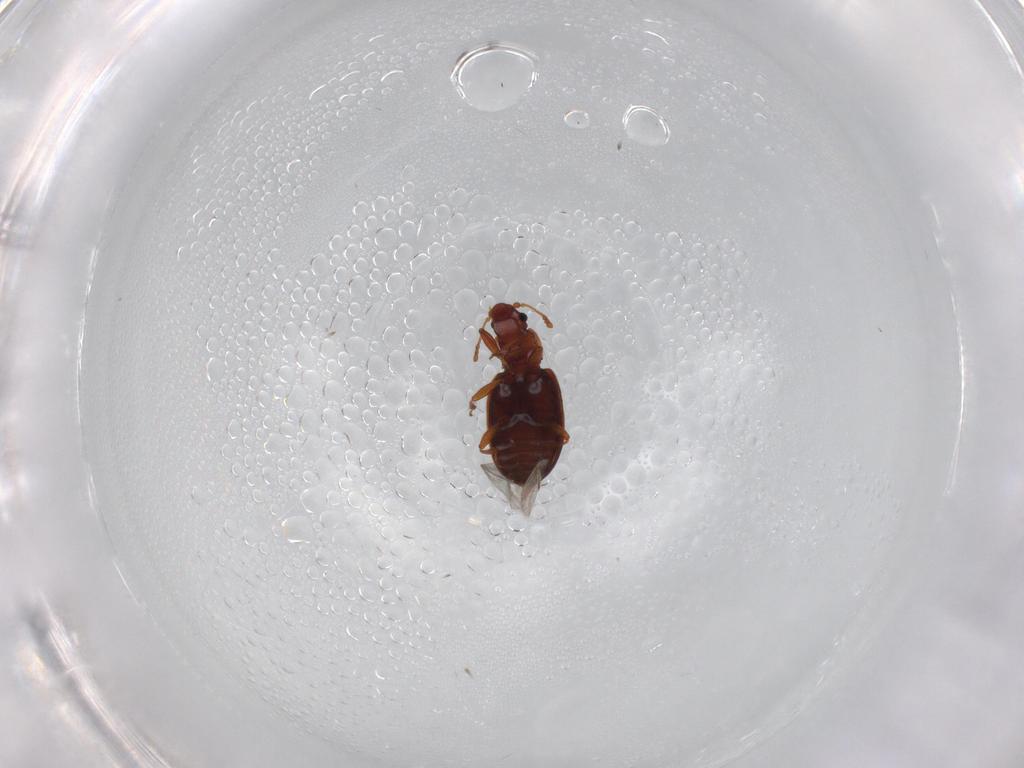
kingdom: Animalia
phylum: Arthropoda
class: Insecta
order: Coleoptera
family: Latridiidae
